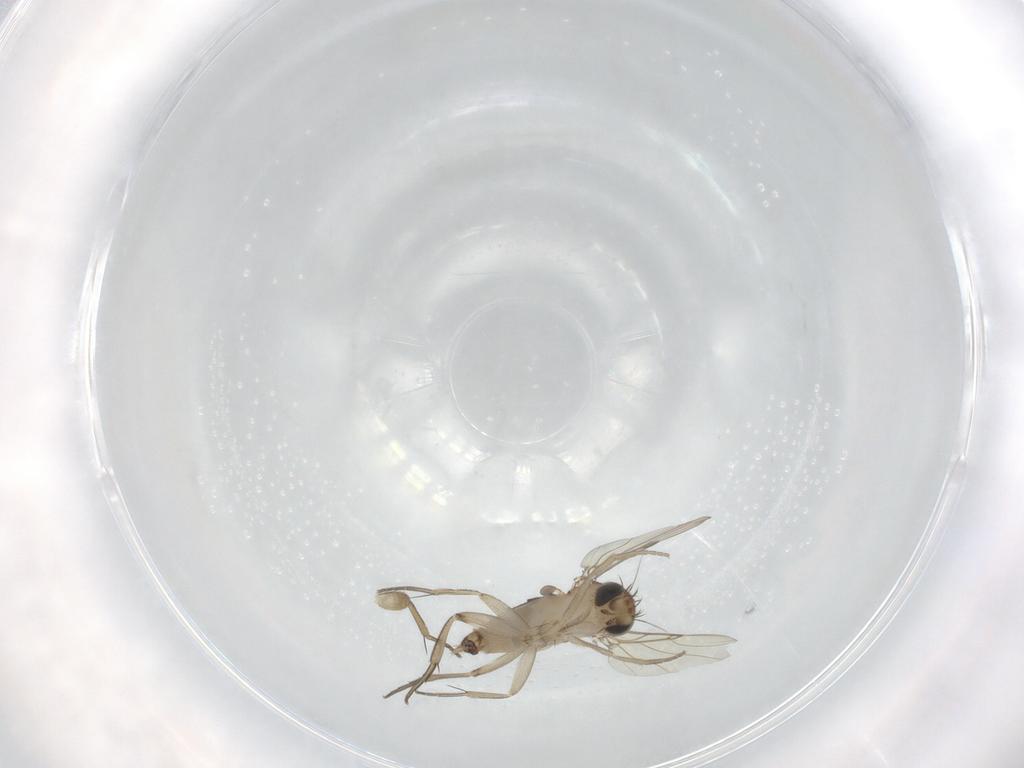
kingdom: Animalia
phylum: Arthropoda
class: Insecta
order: Diptera
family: Phoridae
